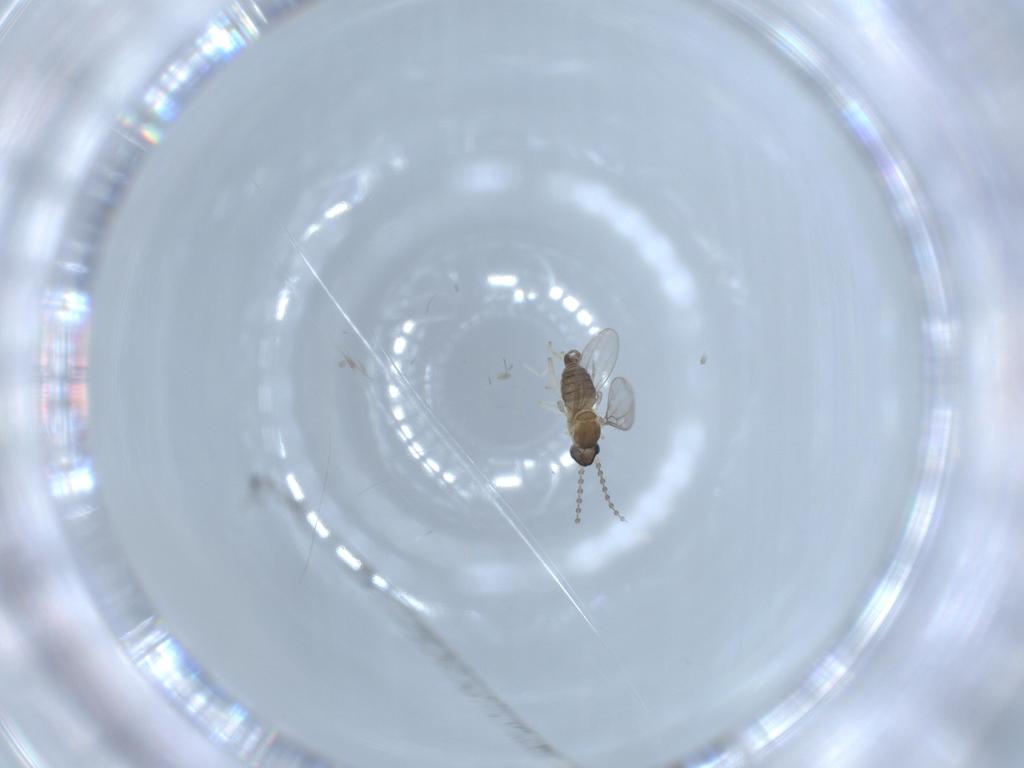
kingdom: Animalia
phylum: Arthropoda
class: Insecta
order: Diptera
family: Cecidomyiidae
